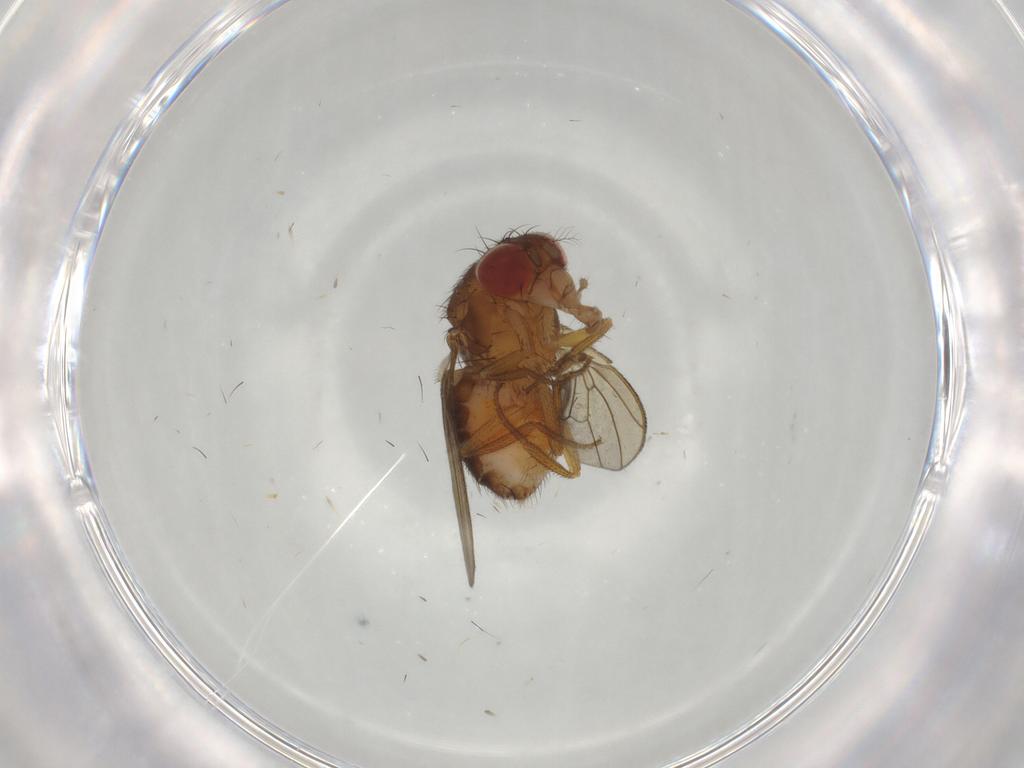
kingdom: Animalia
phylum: Arthropoda
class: Insecta
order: Diptera
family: Drosophilidae
